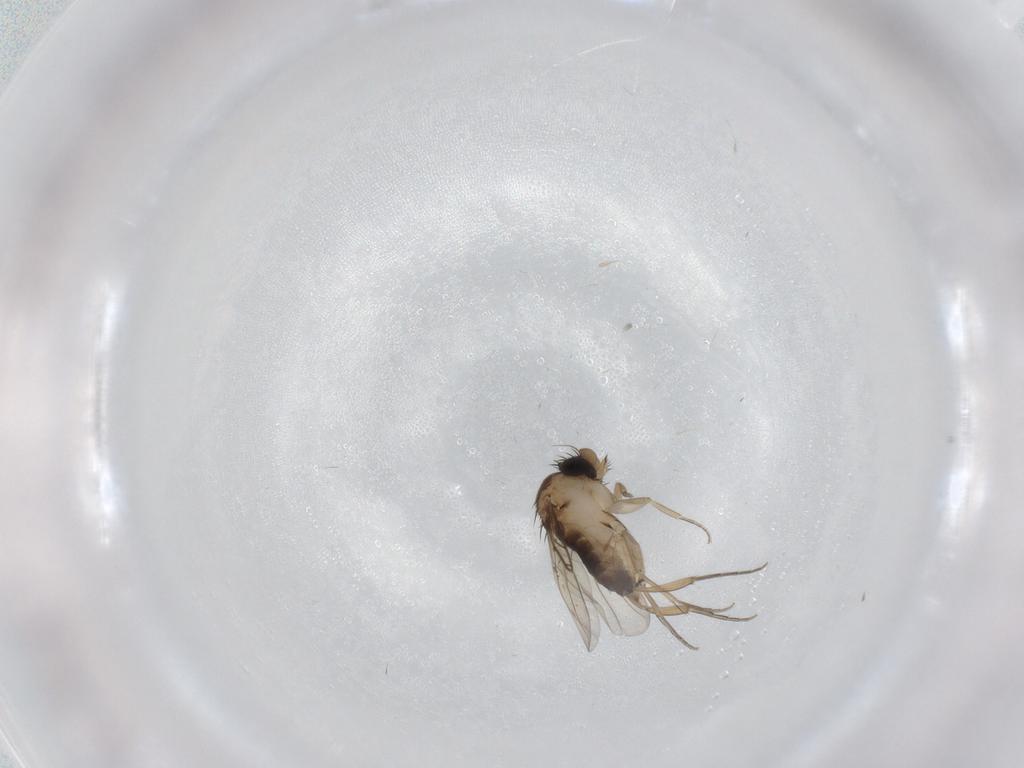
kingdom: Animalia
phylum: Arthropoda
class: Insecta
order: Diptera
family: Phoridae
